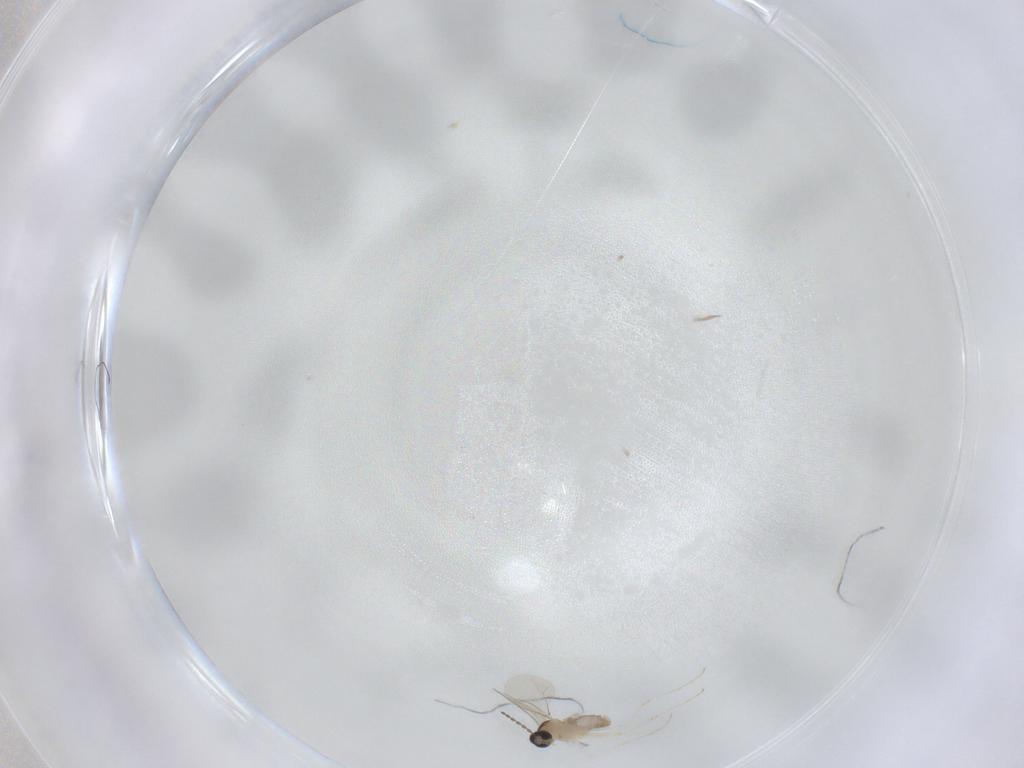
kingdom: Animalia
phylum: Arthropoda
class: Insecta
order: Diptera
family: Cecidomyiidae
